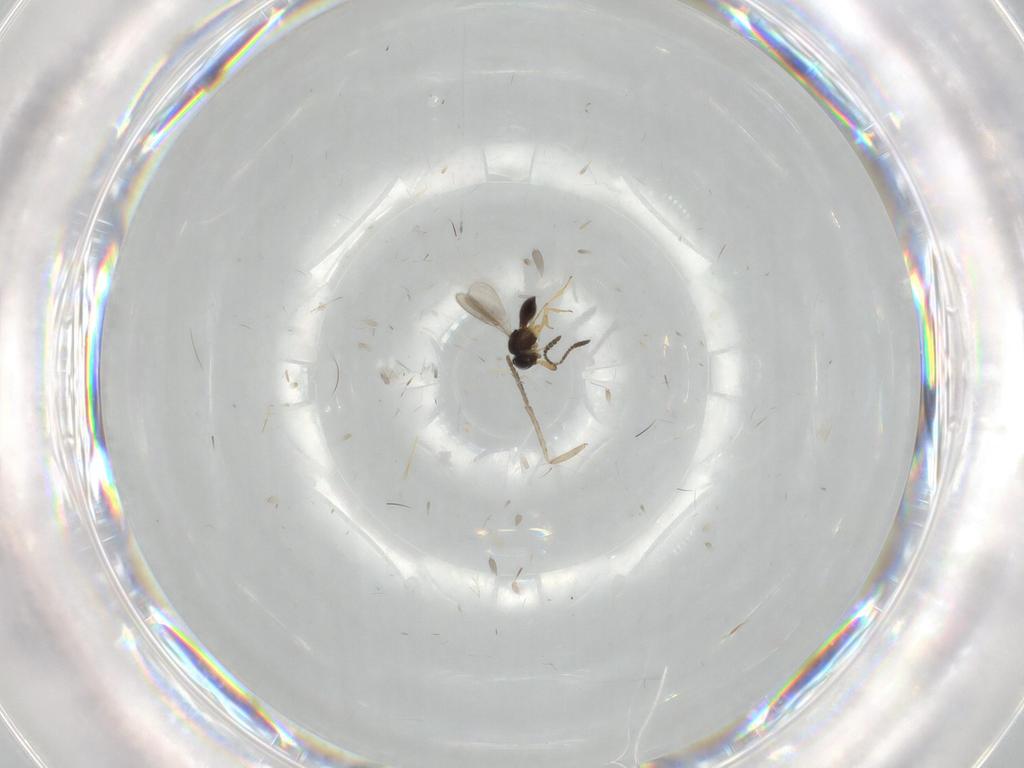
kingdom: Animalia
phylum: Arthropoda
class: Insecta
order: Hymenoptera
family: Scelionidae
